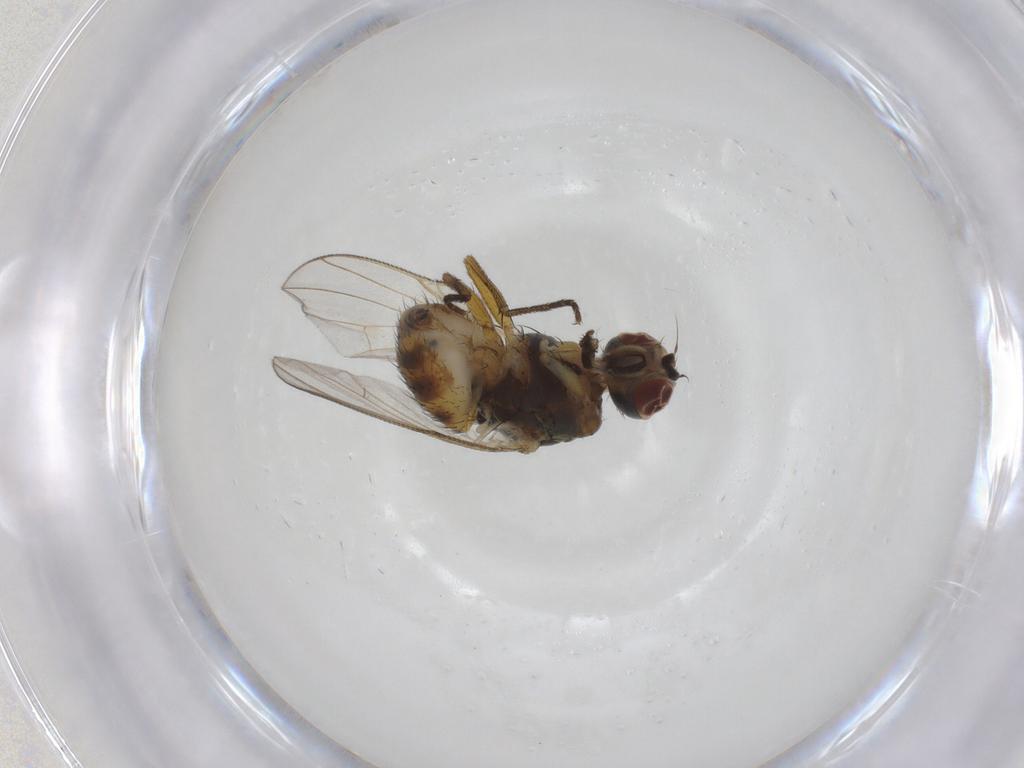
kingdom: Animalia
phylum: Arthropoda
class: Insecta
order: Diptera
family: Muscidae
